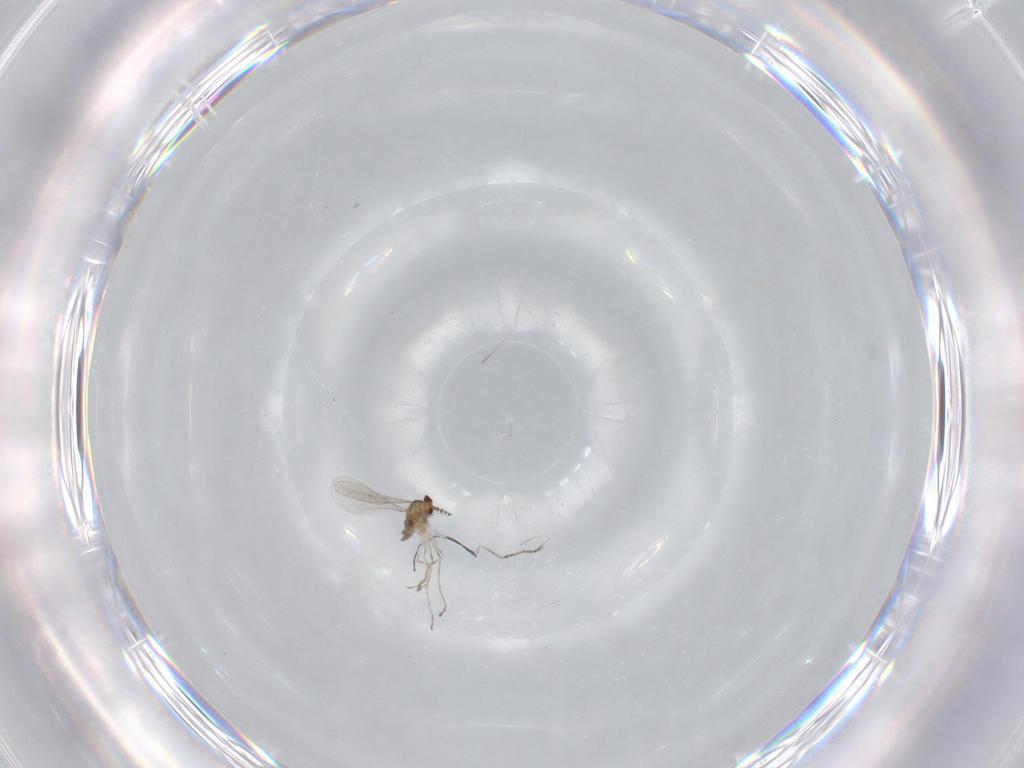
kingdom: Animalia
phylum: Arthropoda
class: Insecta
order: Diptera
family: Cecidomyiidae
